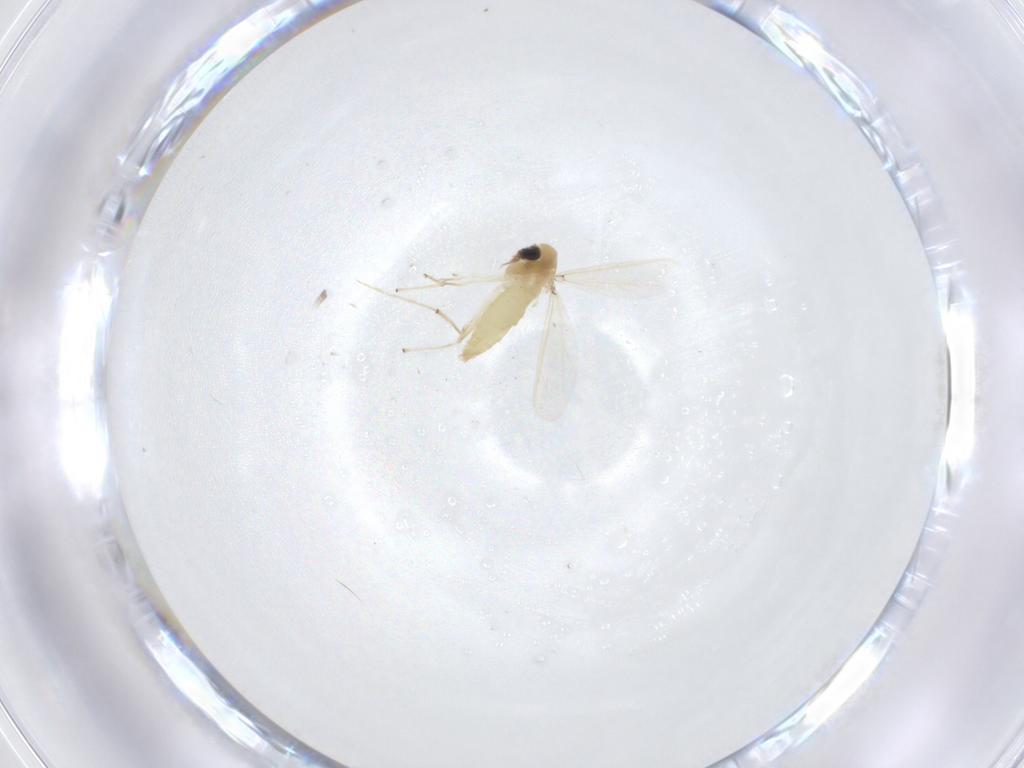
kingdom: Animalia
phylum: Arthropoda
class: Insecta
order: Diptera
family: Chironomidae
